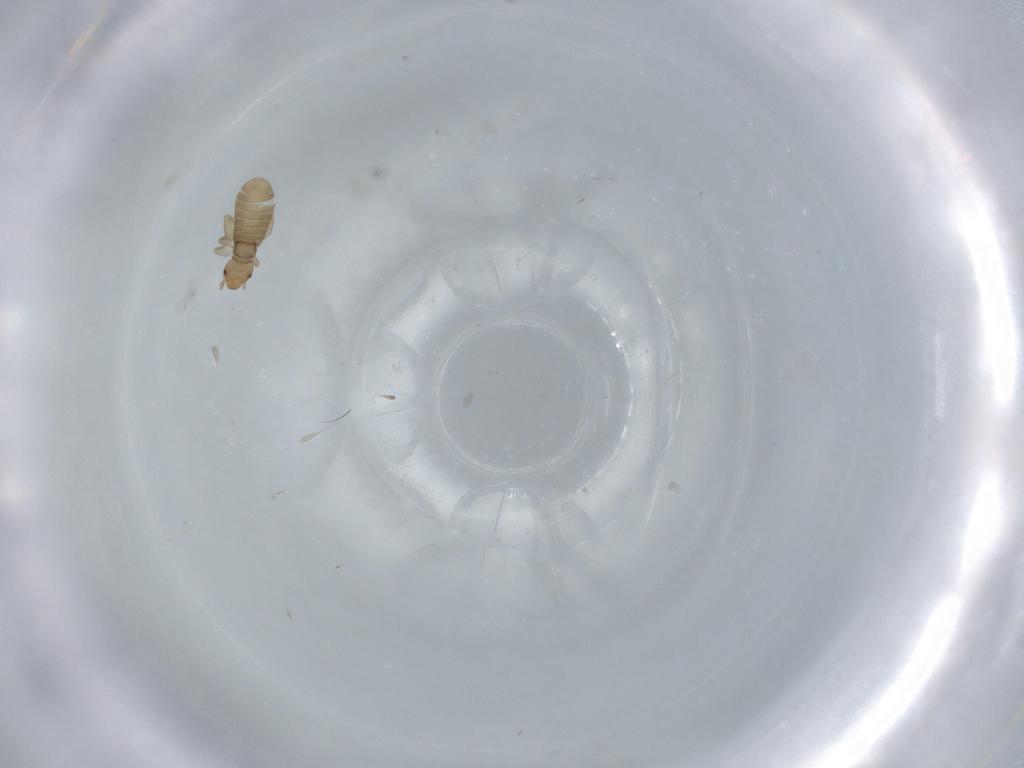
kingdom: Animalia
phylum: Arthropoda
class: Insecta
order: Psocodea
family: Liposcelididae
